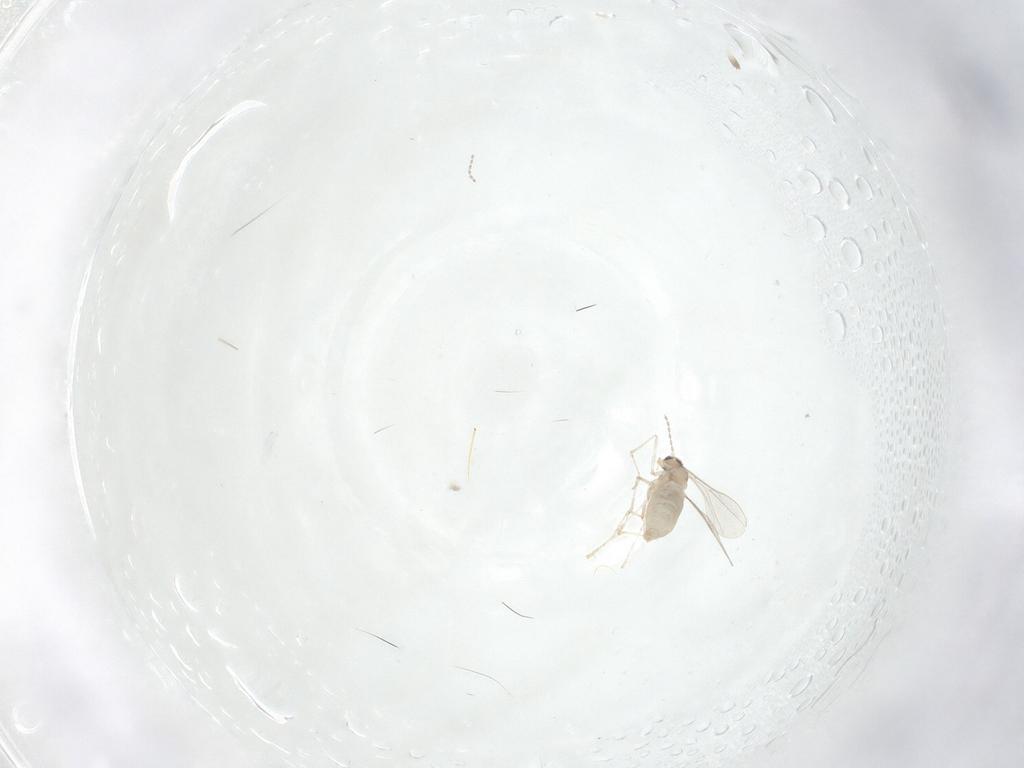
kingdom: Animalia
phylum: Arthropoda
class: Insecta
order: Diptera
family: Cecidomyiidae
